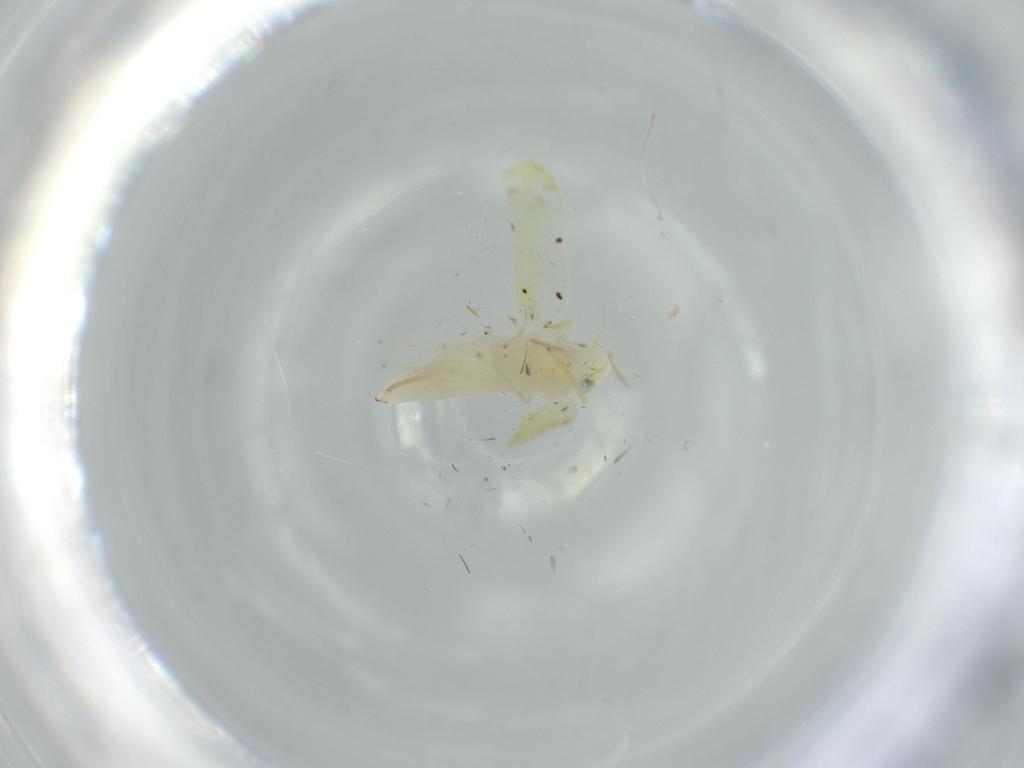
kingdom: Animalia
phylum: Arthropoda
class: Insecta
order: Hemiptera
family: Cicadellidae
